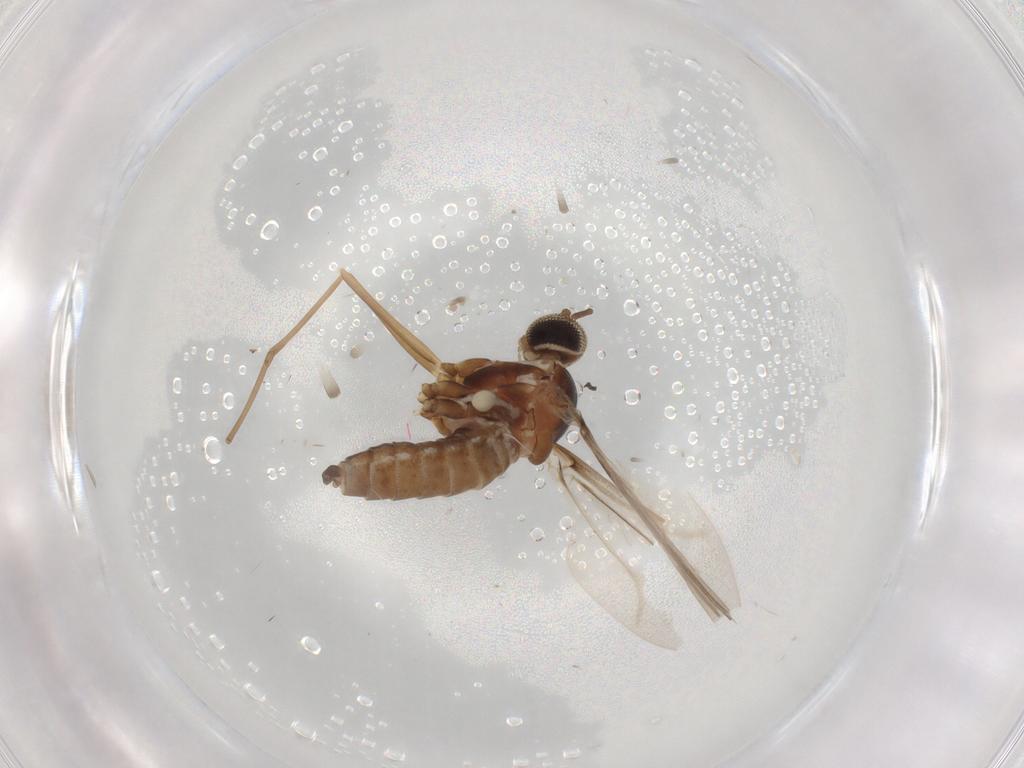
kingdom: Animalia
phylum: Arthropoda
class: Insecta
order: Diptera
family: Cecidomyiidae
